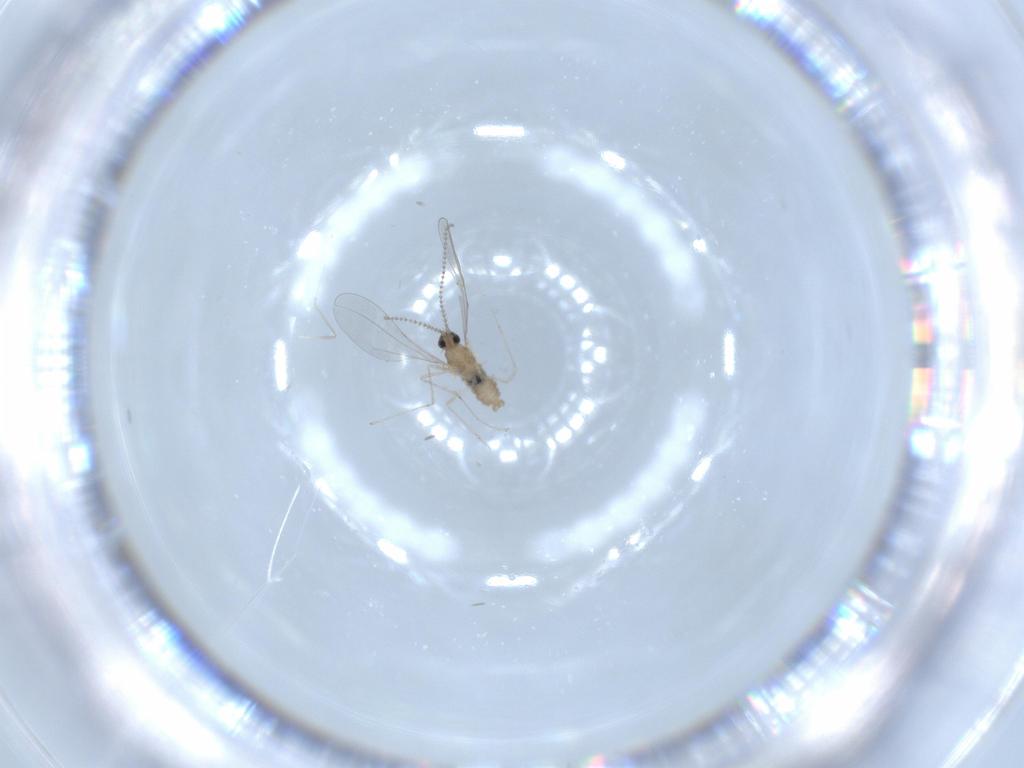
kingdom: Animalia
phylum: Arthropoda
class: Insecta
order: Diptera
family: Cecidomyiidae
